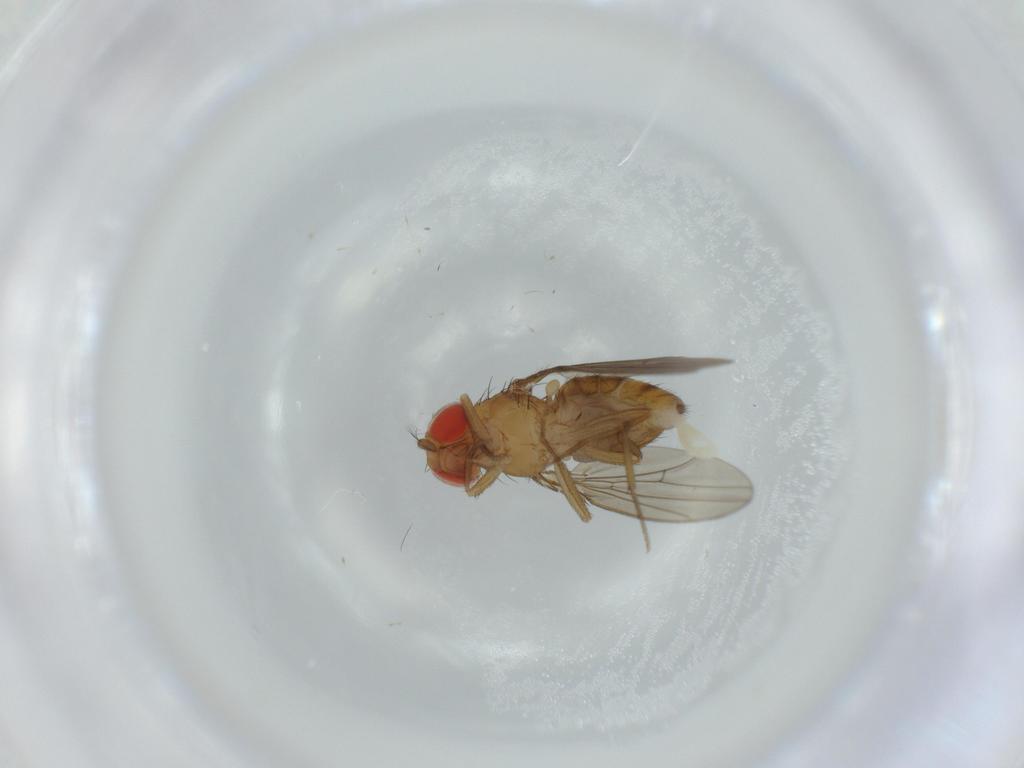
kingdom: Animalia
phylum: Arthropoda
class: Insecta
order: Diptera
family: Drosophilidae
